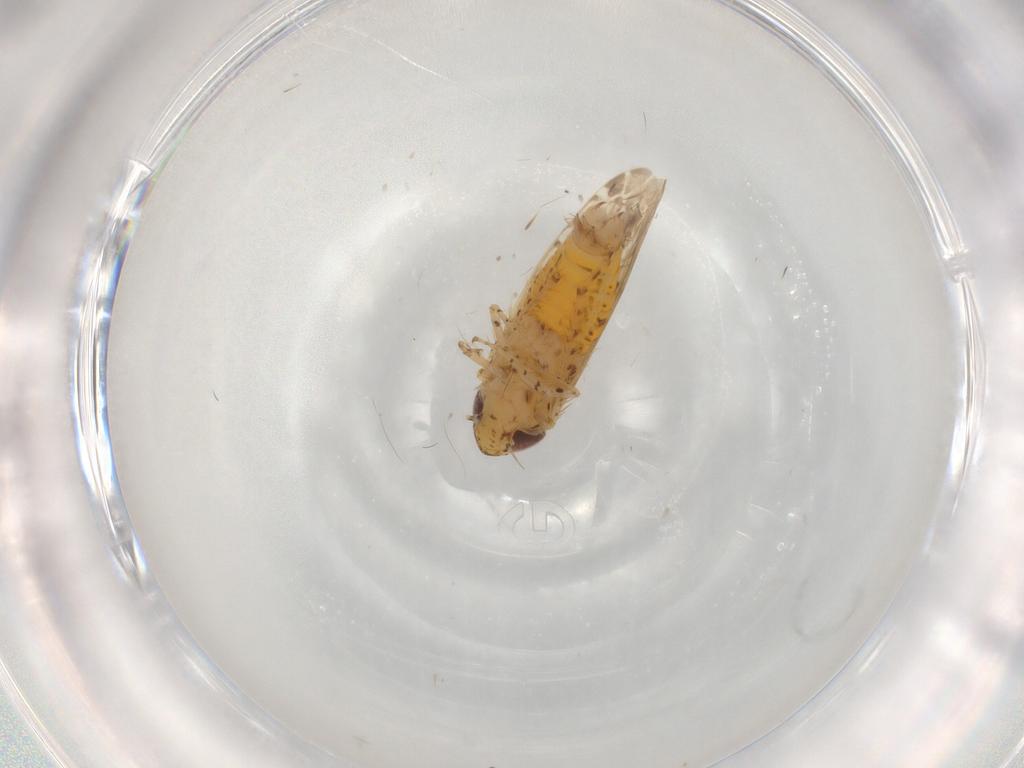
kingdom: Animalia
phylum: Arthropoda
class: Insecta
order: Hemiptera
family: Cicadellidae
